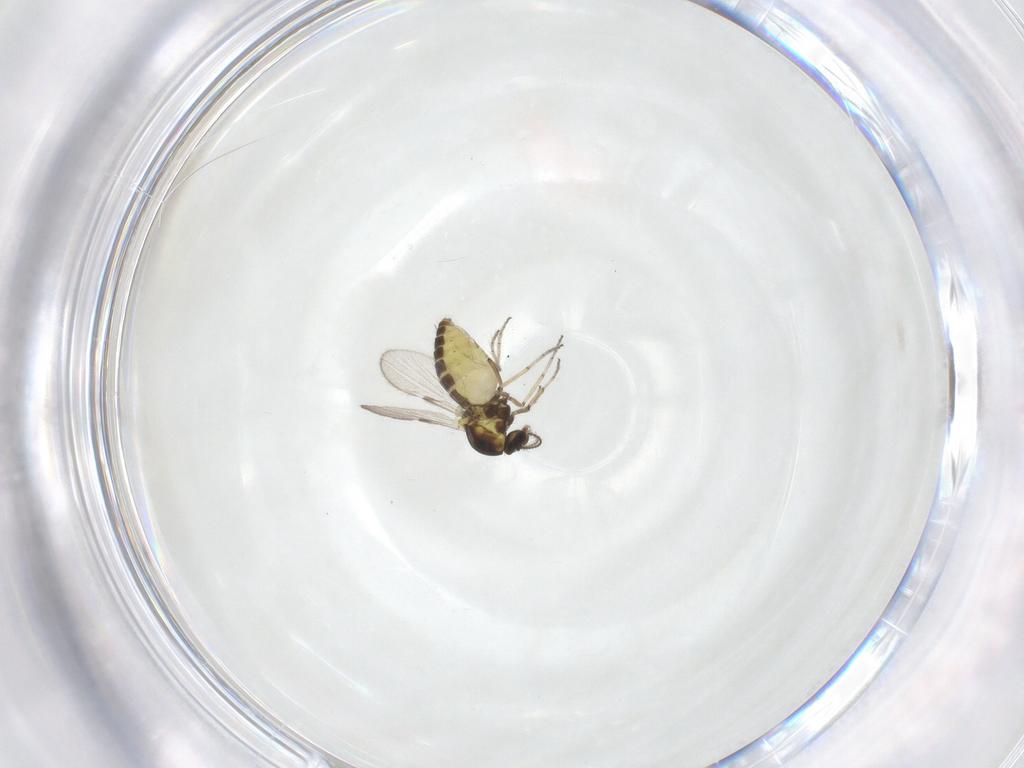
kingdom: Animalia
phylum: Arthropoda
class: Insecta
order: Diptera
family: Ceratopogonidae
